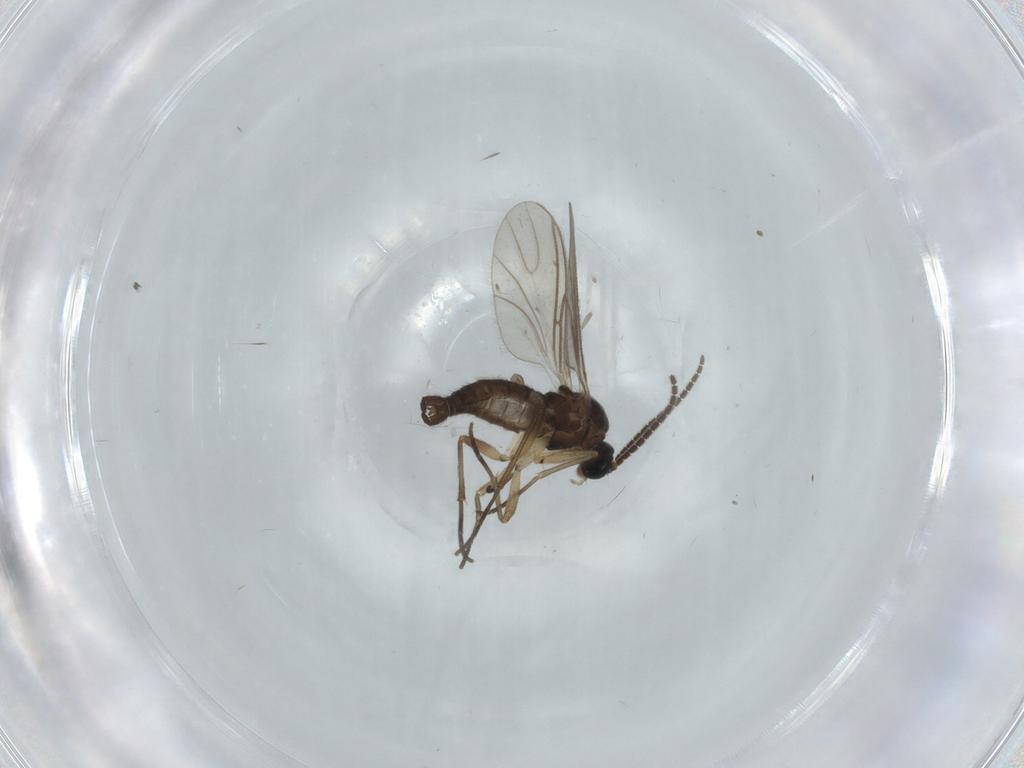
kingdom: Animalia
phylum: Arthropoda
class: Insecta
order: Diptera
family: Sciaridae
